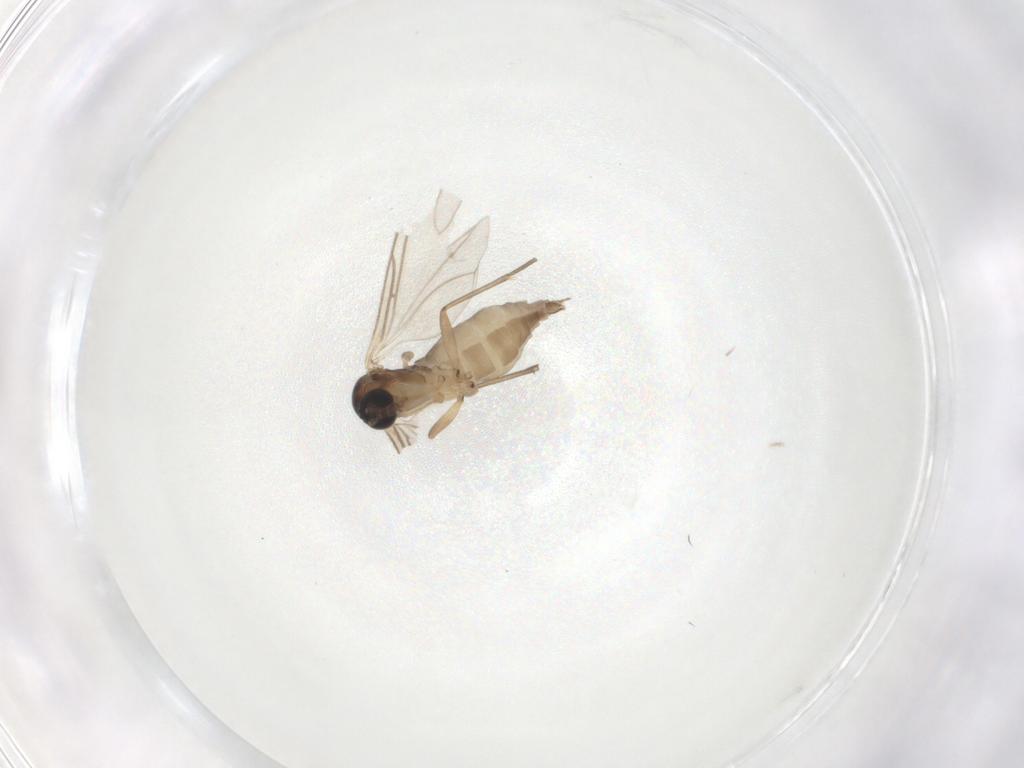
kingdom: Animalia
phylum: Arthropoda
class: Insecta
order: Diptera
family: Sciaridae
